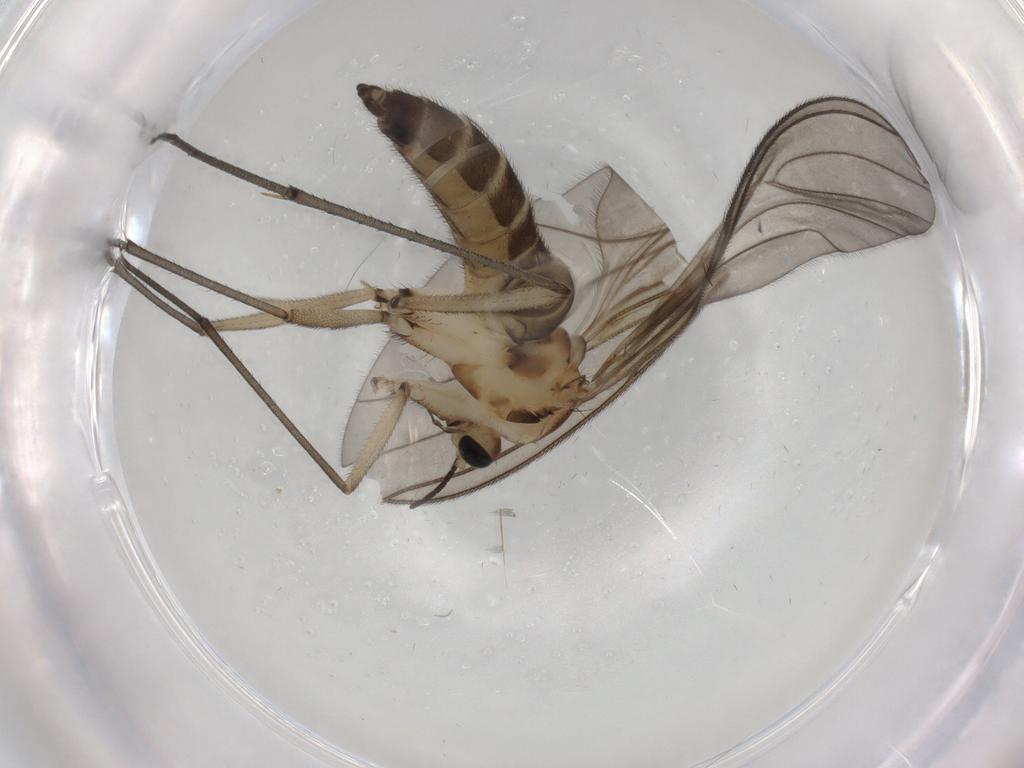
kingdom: Animalia
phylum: Arthropoda
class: Insecta
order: Diptera
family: Sciaridae
